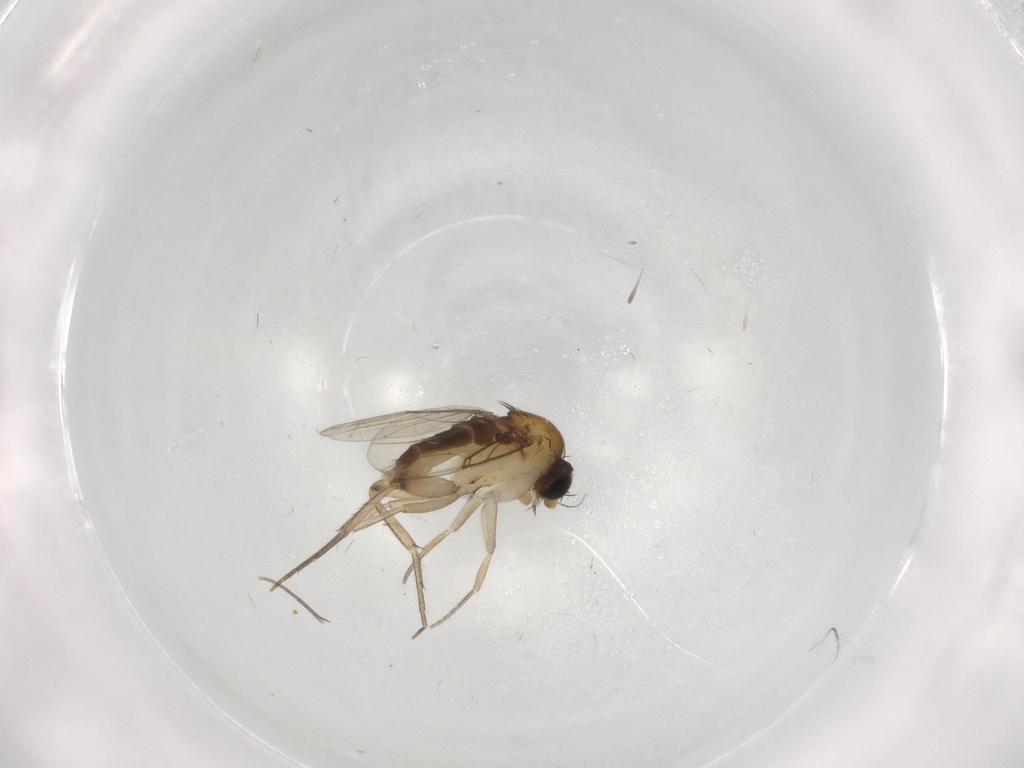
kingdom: Animalia
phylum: Arthropoda
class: Insecta
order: Diptera
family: Phoridae
